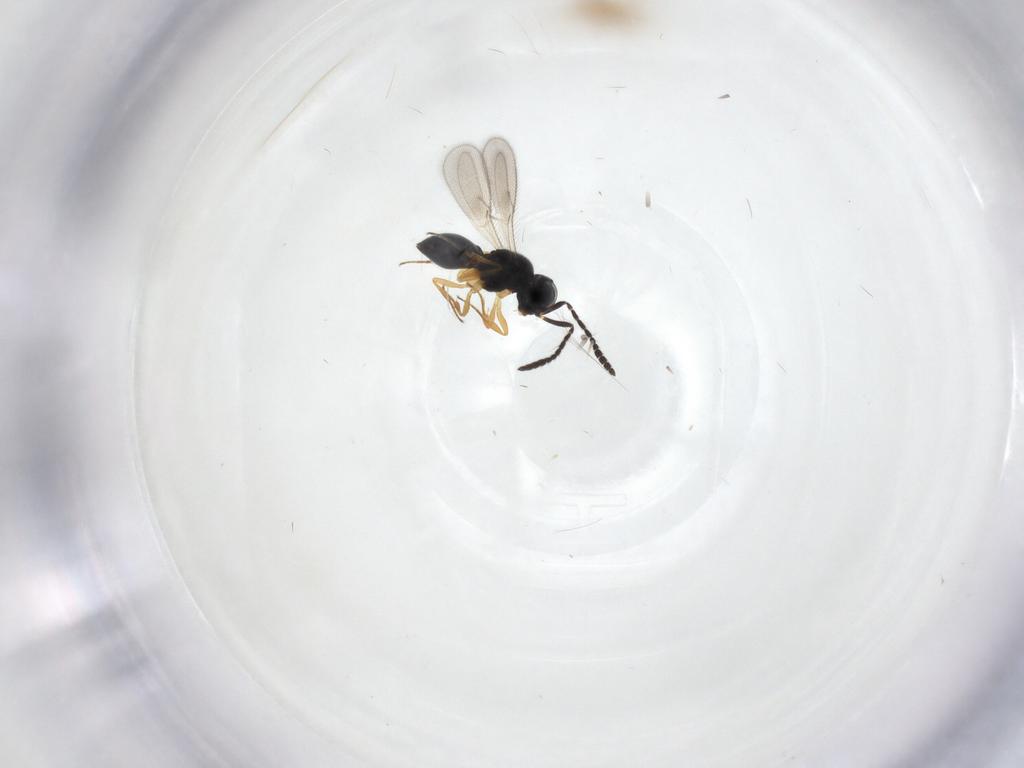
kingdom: Animalia
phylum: Arthropoda
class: Insecta
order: Hymenoptera
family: Scelionidae
